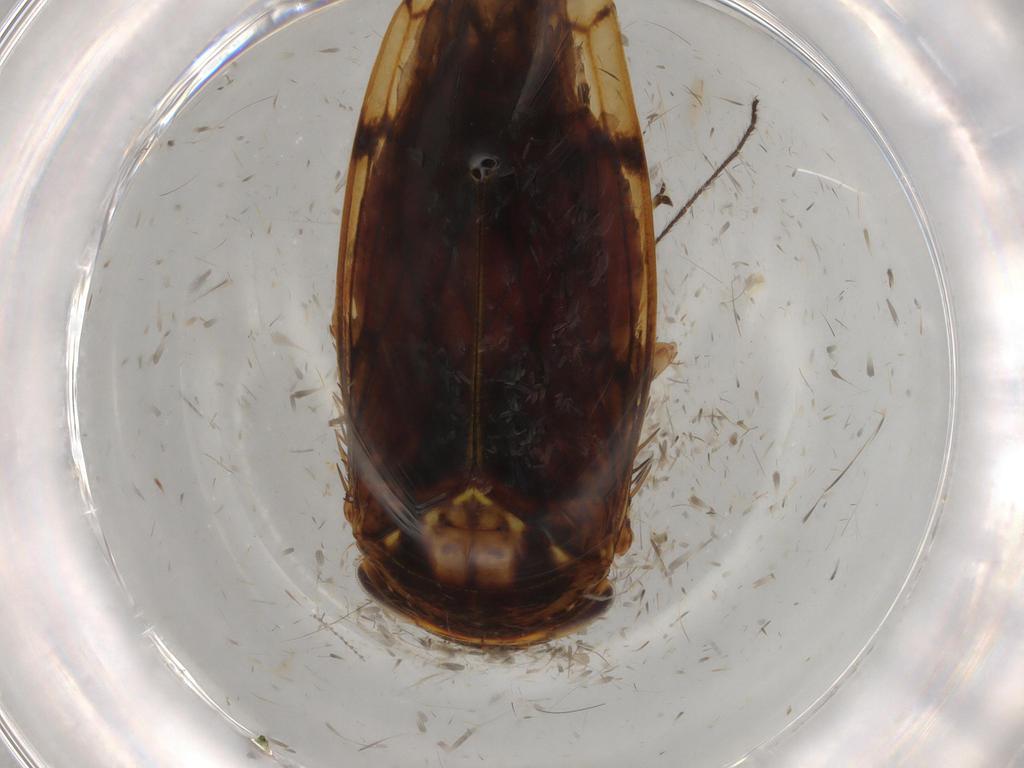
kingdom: Animalia
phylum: Arthropoda
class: Insecta
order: Hemiptera
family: Cicadellidae
